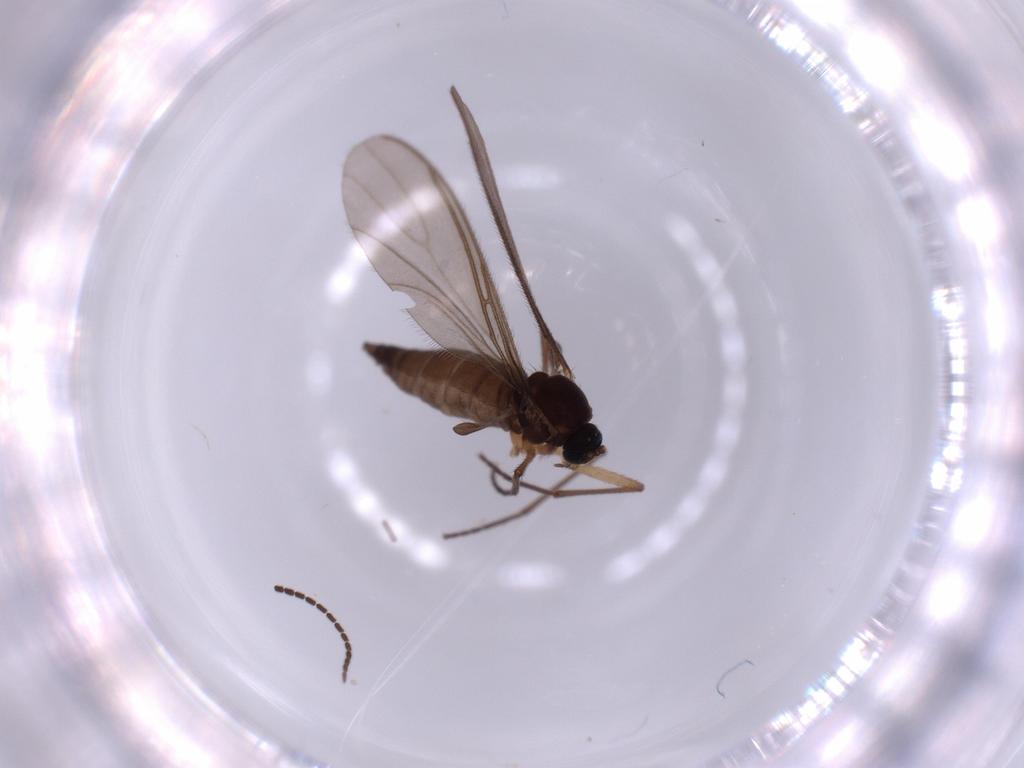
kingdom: Animalia
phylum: Arthropoda
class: Insecta
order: Diptera
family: Sciaridae
